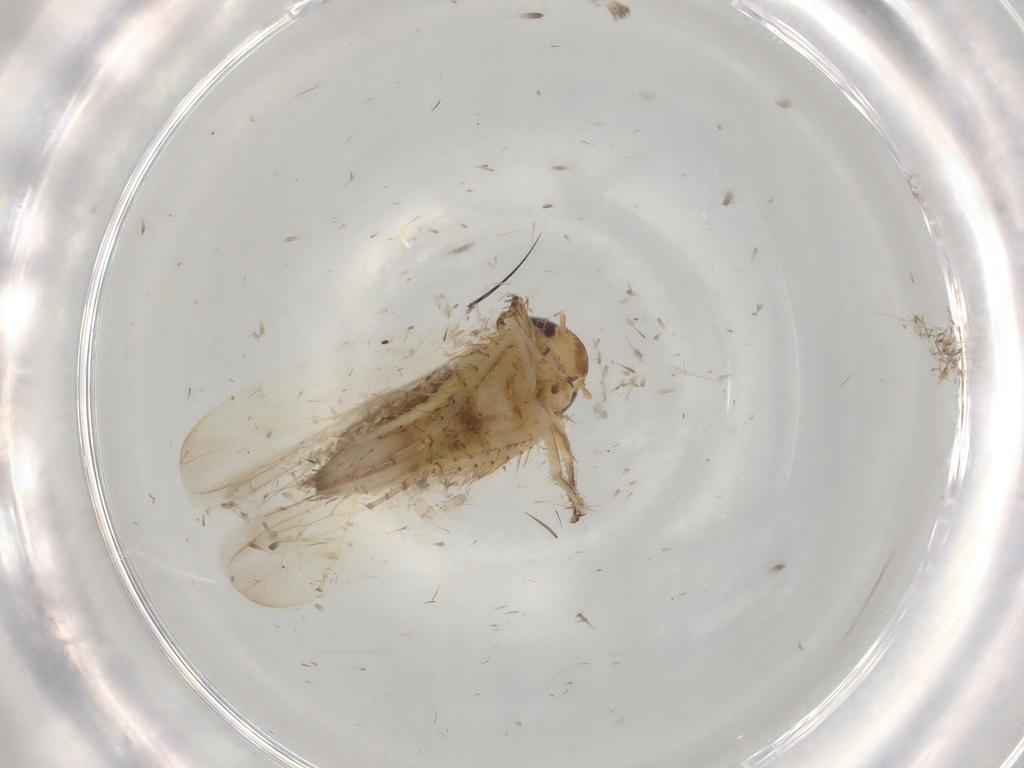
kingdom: Animalia
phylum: Arthropoda
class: Insecta
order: Hemiptera
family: Cicadellidae
